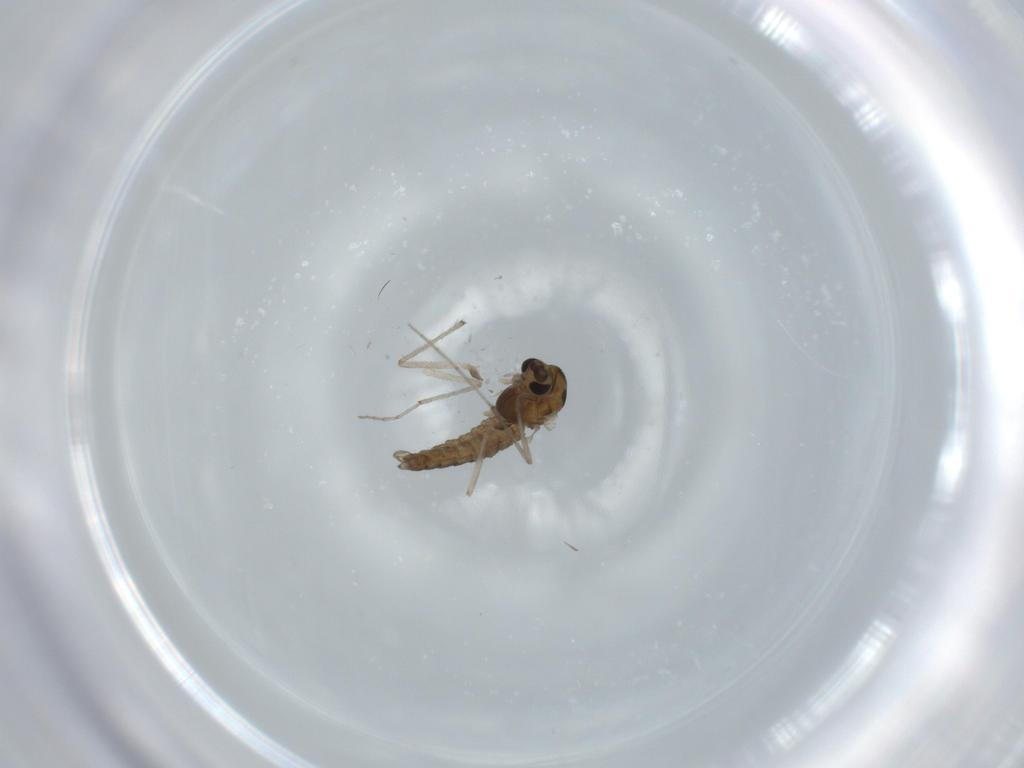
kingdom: Animalia
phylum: Arthropoda
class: Insecta
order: Diptera
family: Chironomidae
